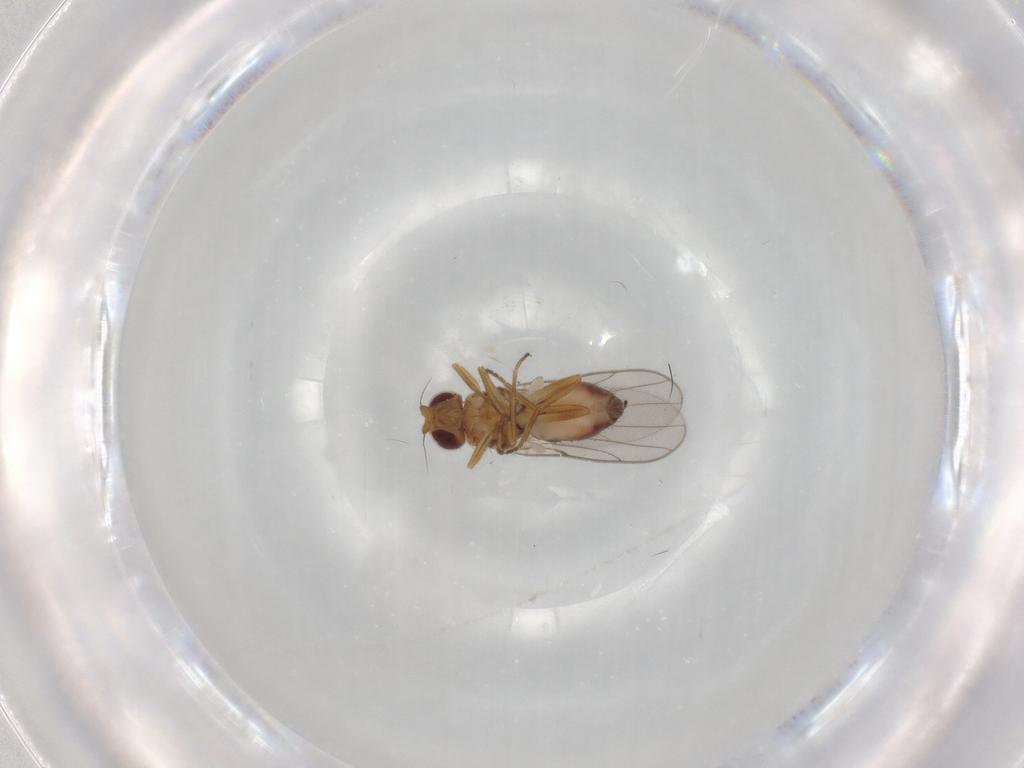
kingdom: Animalia
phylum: Arthropoda
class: Insecta
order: Diptera
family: Chloropidae
